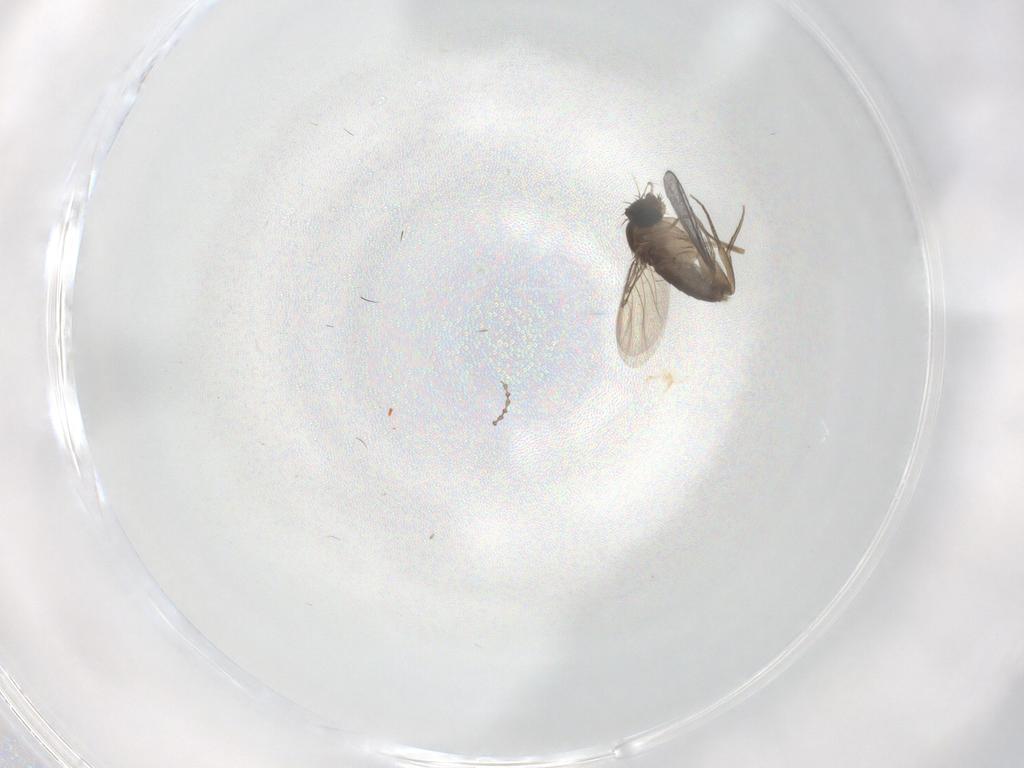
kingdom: Animalia
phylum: Arthropoda
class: Insecta
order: Diptera
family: Phoridae
